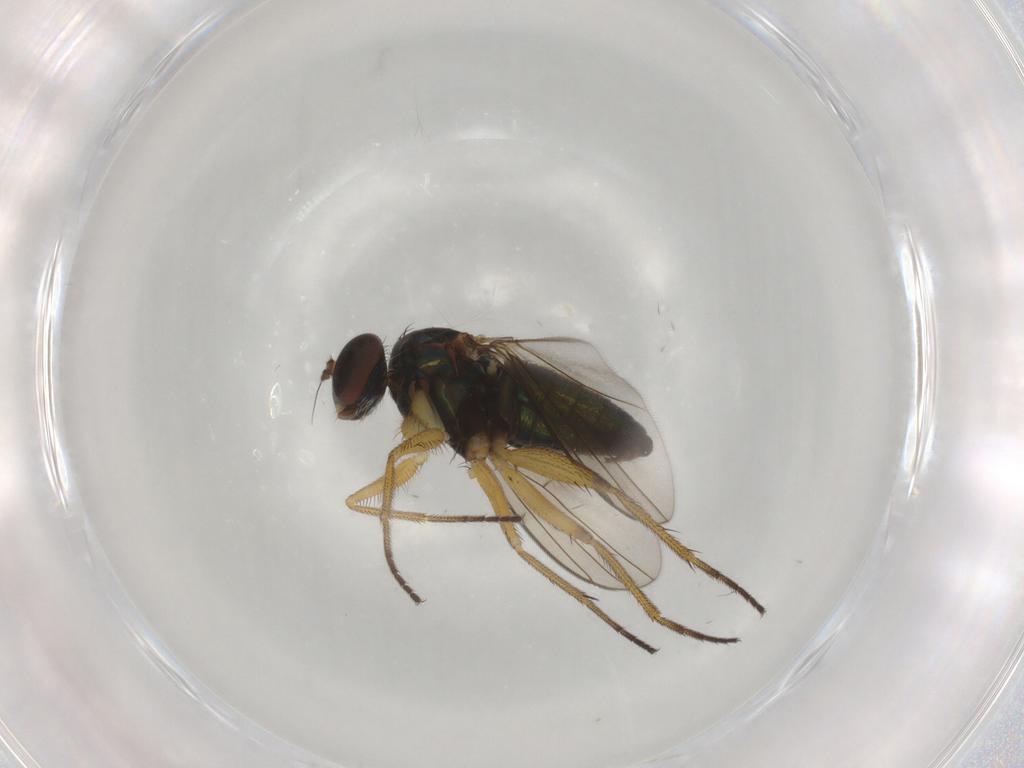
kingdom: Animalia
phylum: Arthropoda
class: Insecta
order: Diptera
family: Dolichopodidae
